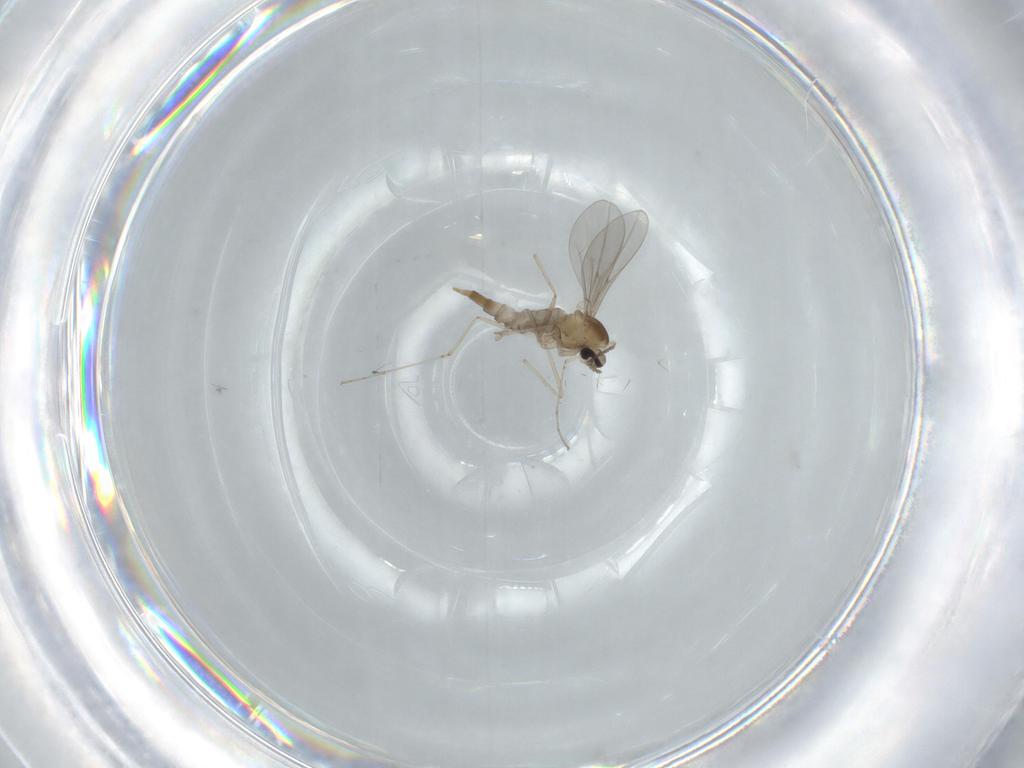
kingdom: Animalia
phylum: Arthropoda
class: Insecta
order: Diptera
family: Cecidomyiidae
